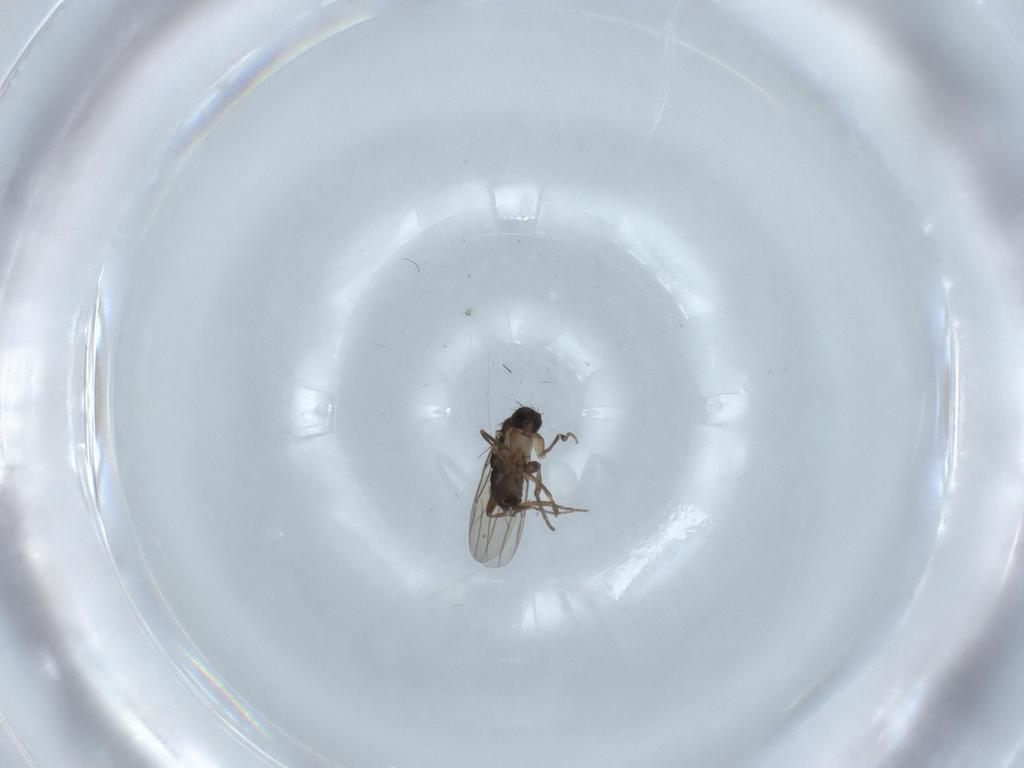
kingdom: Animalia
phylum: Arthropoda
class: Insecta
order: Diptera
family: Phoridae
